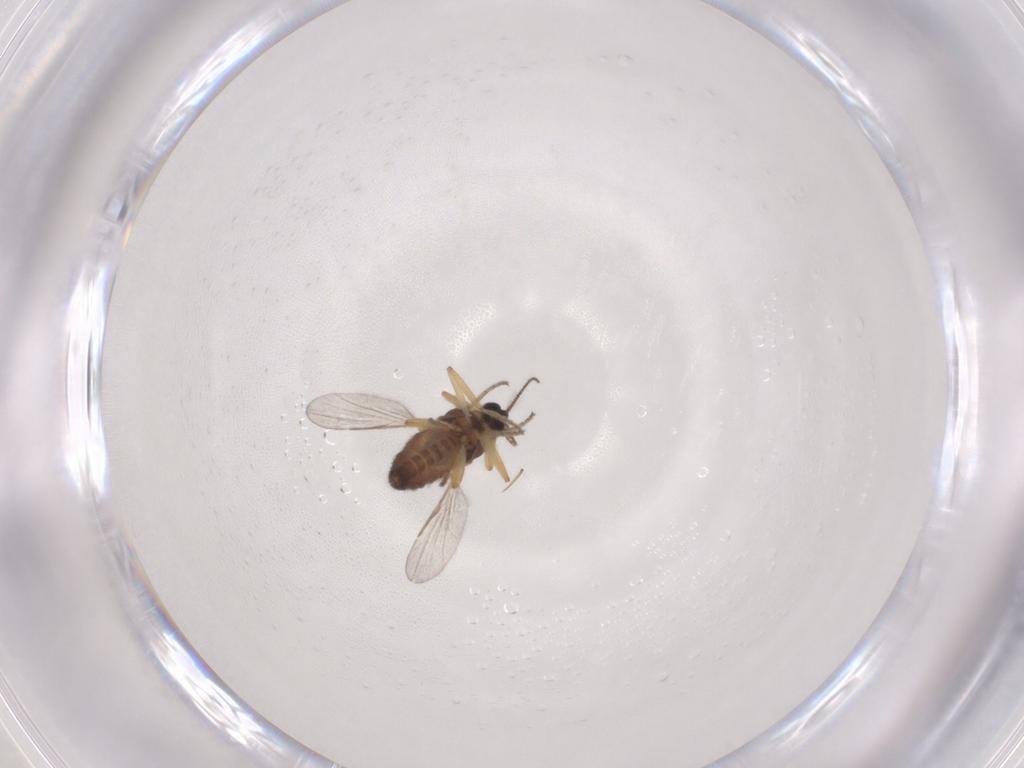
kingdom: Animalia
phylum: Arthropoda
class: Insecta
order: Diptera
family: Ceratopogonidae
